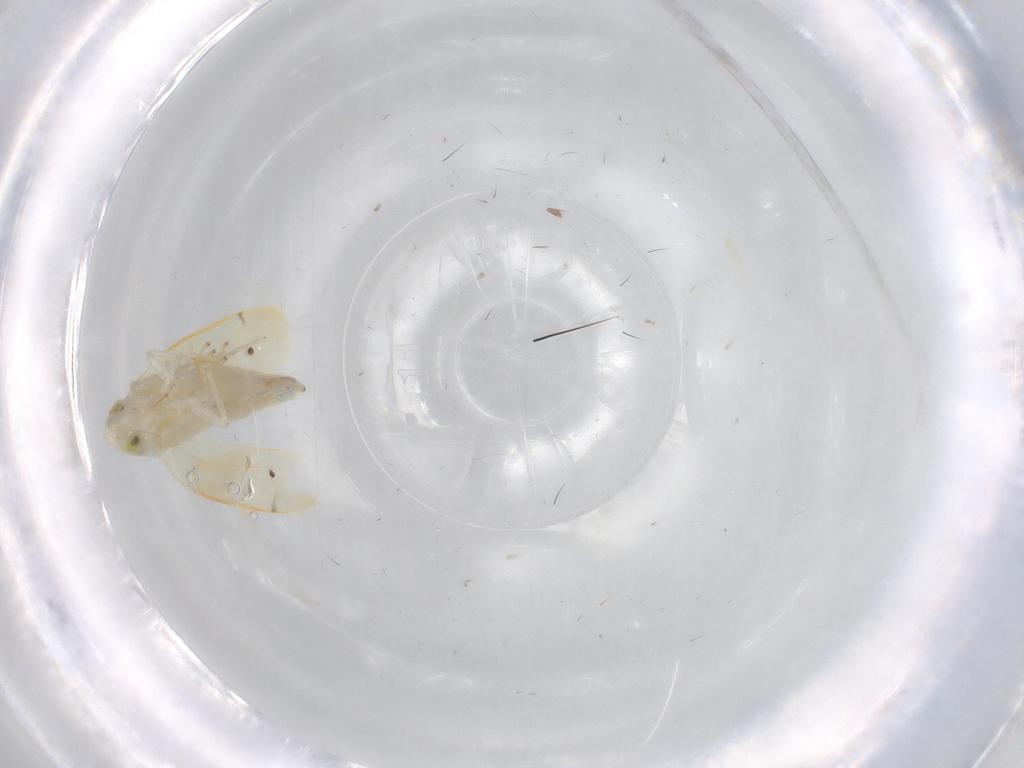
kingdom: Animalia
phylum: Arthropoda
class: Insecta
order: Hemiptera
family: Cicadellidae
